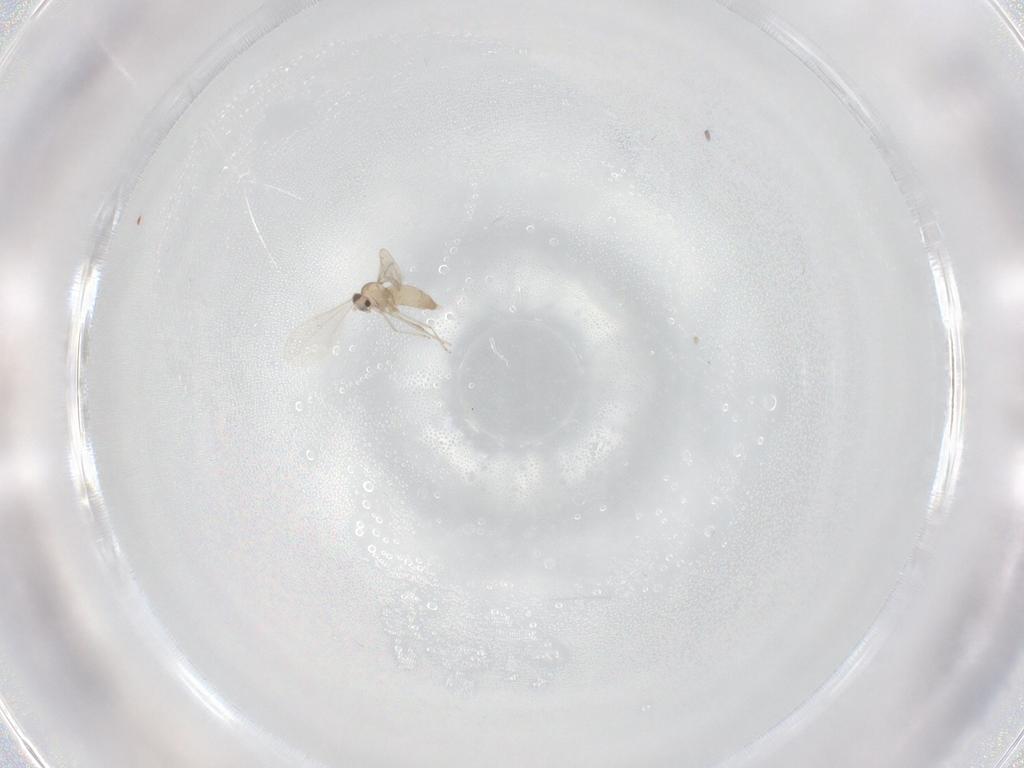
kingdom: Animalia
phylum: Arthropoda
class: Insecta
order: Diptera
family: Cecidomyiidae
